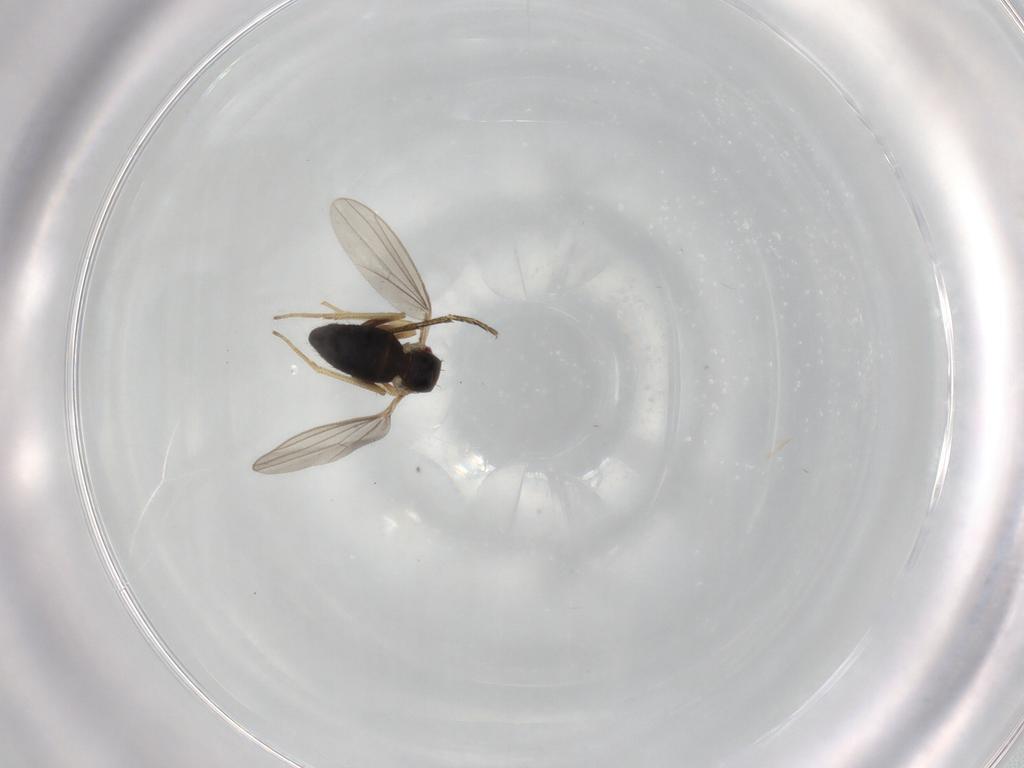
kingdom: Animalia
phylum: Arthropoda
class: Insecta
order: Diptera
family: Dolichopodidae
